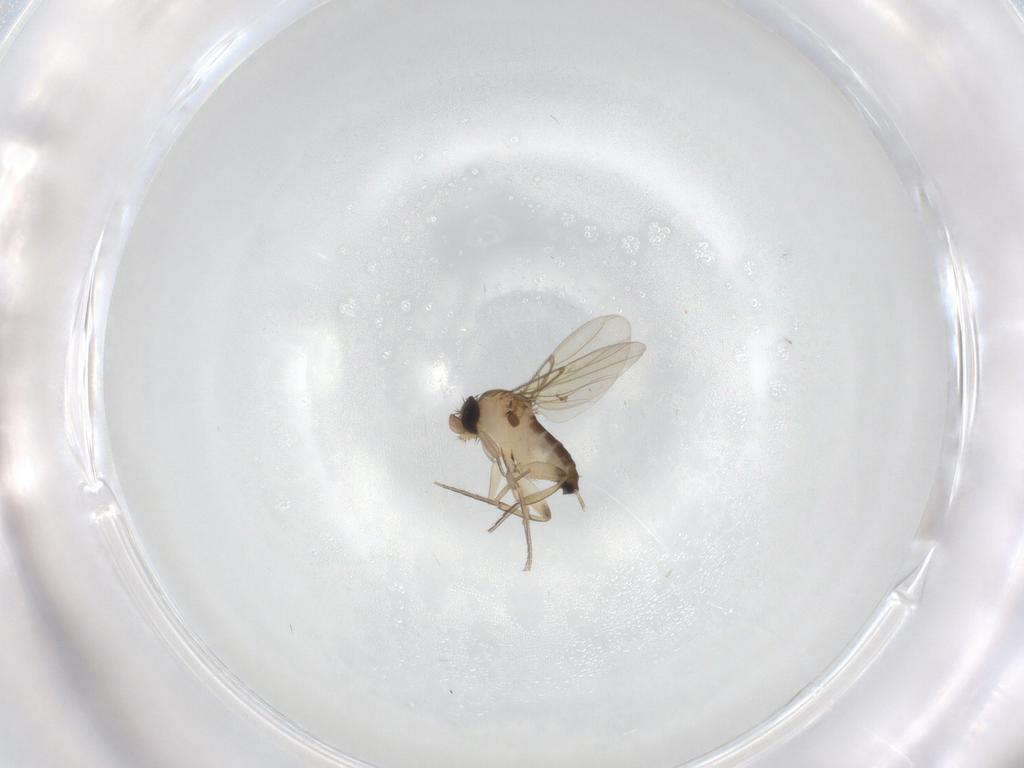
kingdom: Animalia
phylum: Arthropoda
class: Insecta
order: Diptera
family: Phoridae
